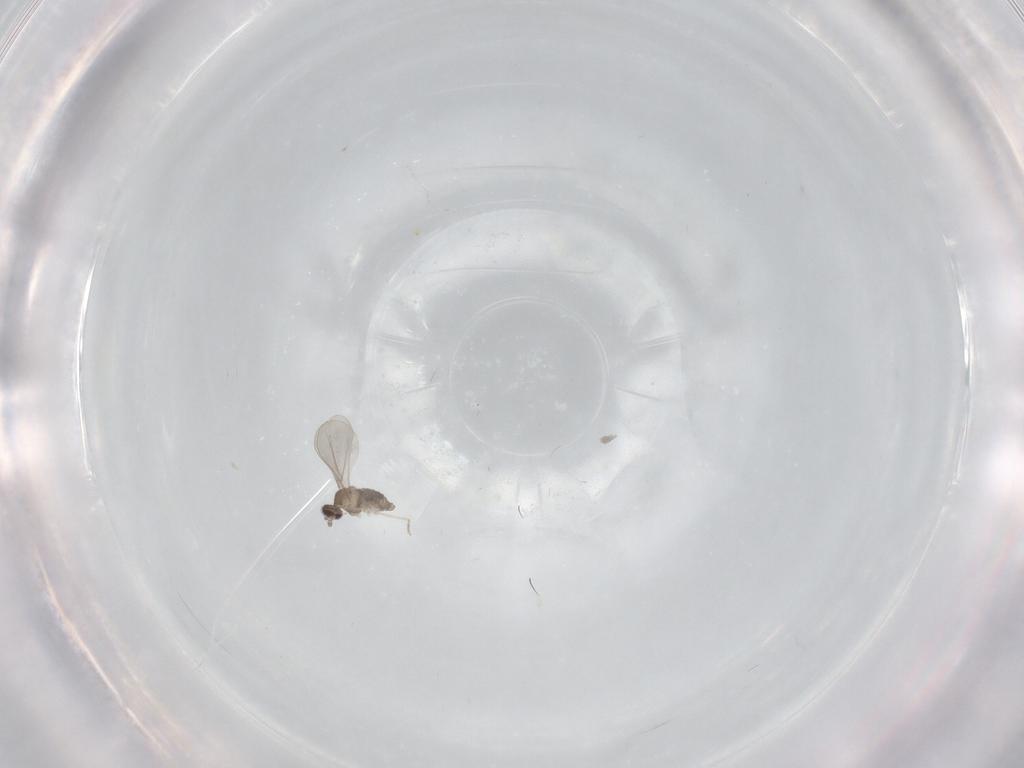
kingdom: Animalia
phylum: Arthropoda
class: Insecta
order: Diptera
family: Cecidomyiidae
